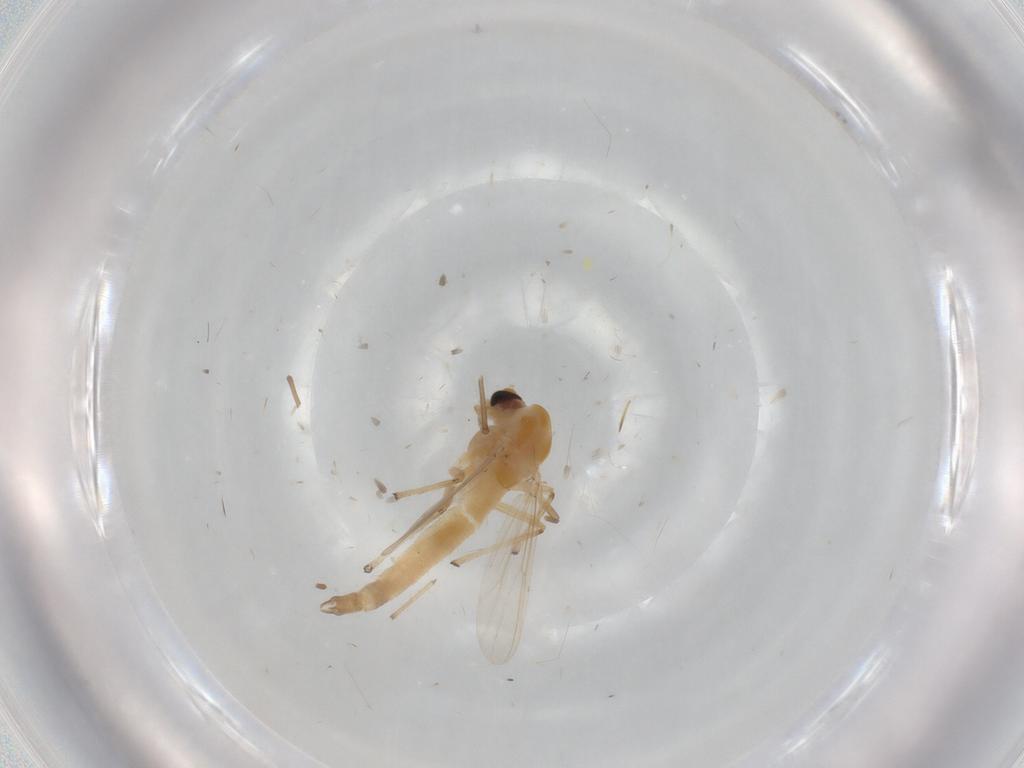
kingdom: Animalia
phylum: Arthropoda
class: Insecta
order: Diptera
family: Chironomidae
